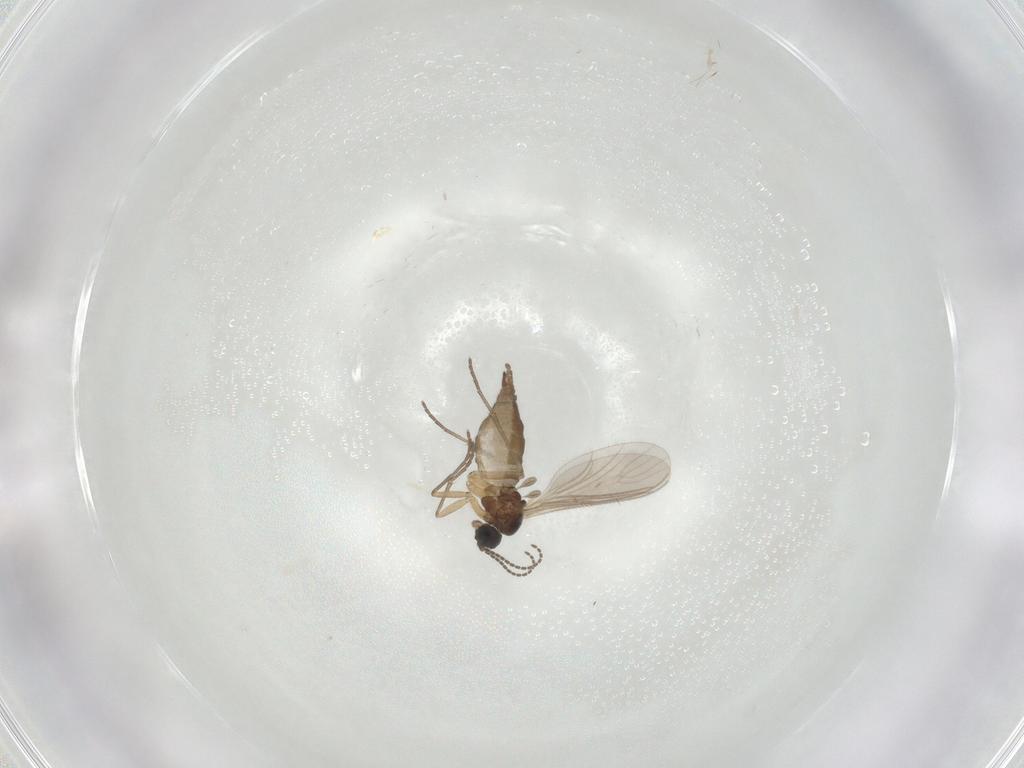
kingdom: Animalia
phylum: Arthropoda
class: Insecta
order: Diptera
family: Sciaridae
